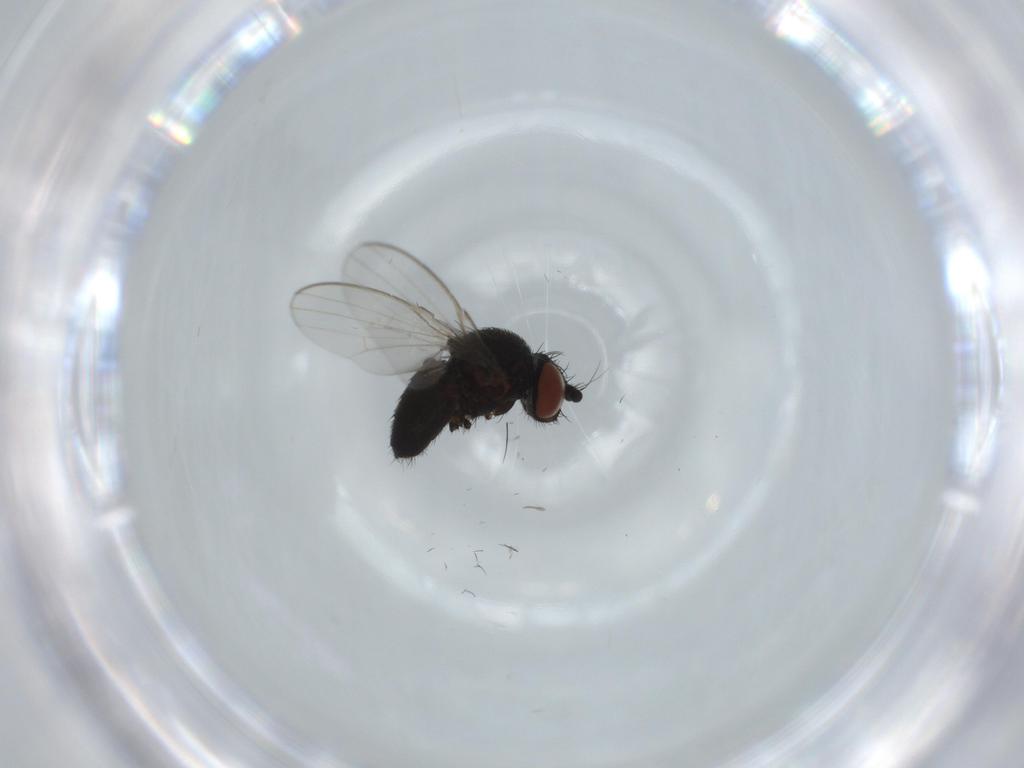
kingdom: Animalia
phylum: Arthropoda
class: Insecta
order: Diptera
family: Milichiidae
